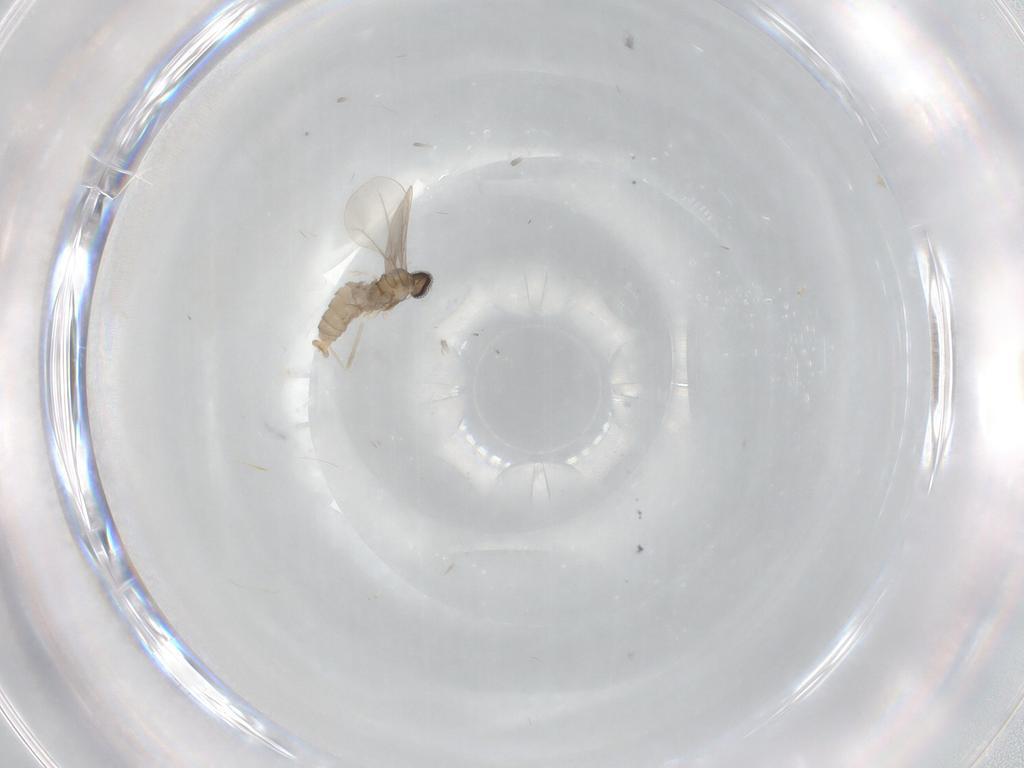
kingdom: Animalia
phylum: Arthropoda
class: Insecta
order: Diptera
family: Cecidomyiidae
